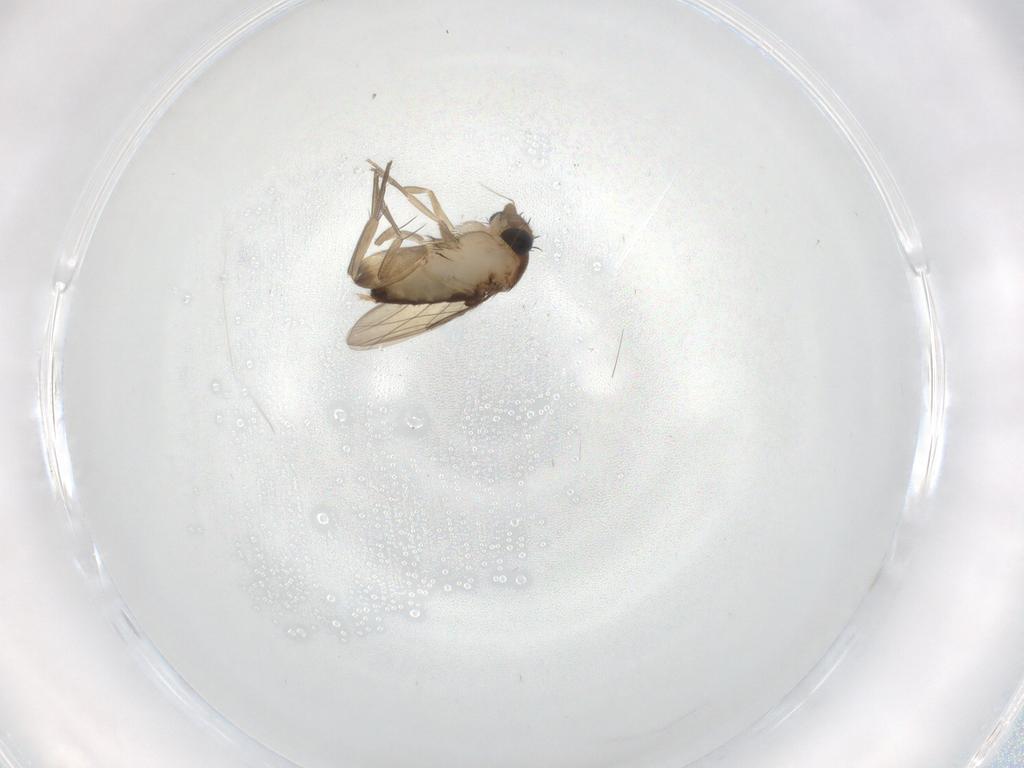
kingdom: Animalia
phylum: Arthropoda
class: Insecta
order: Diptera
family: Phoridae
